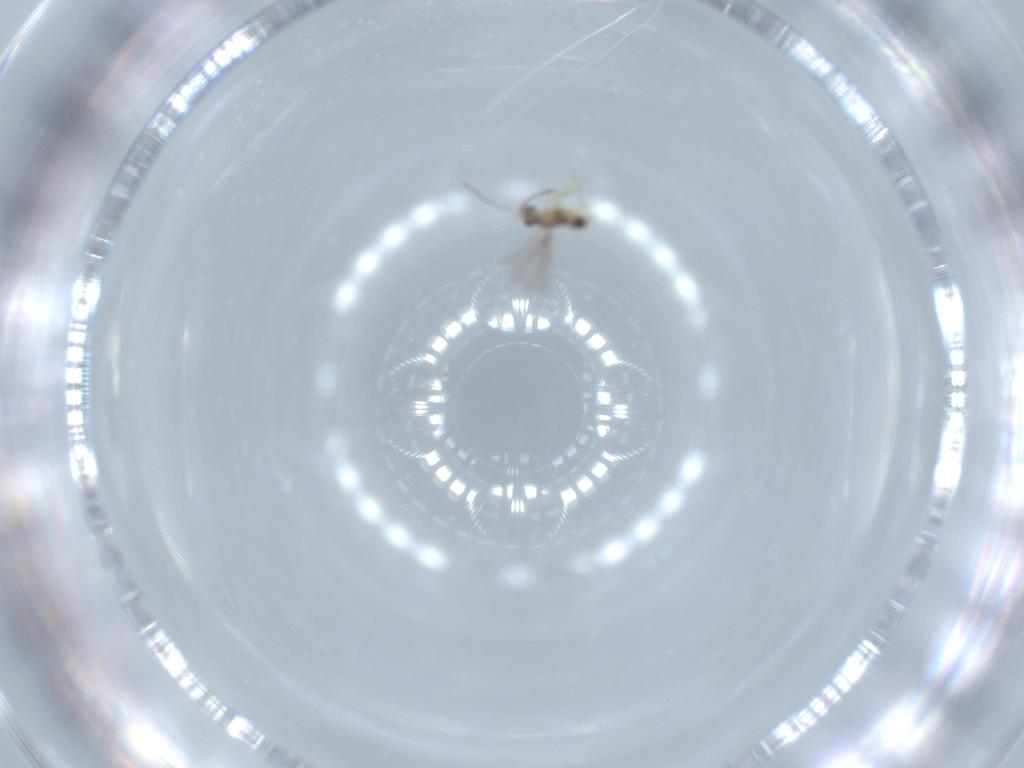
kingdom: Animalia
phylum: Arthropoda
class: Insecta
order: Hymenoptera
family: Mymaridae
